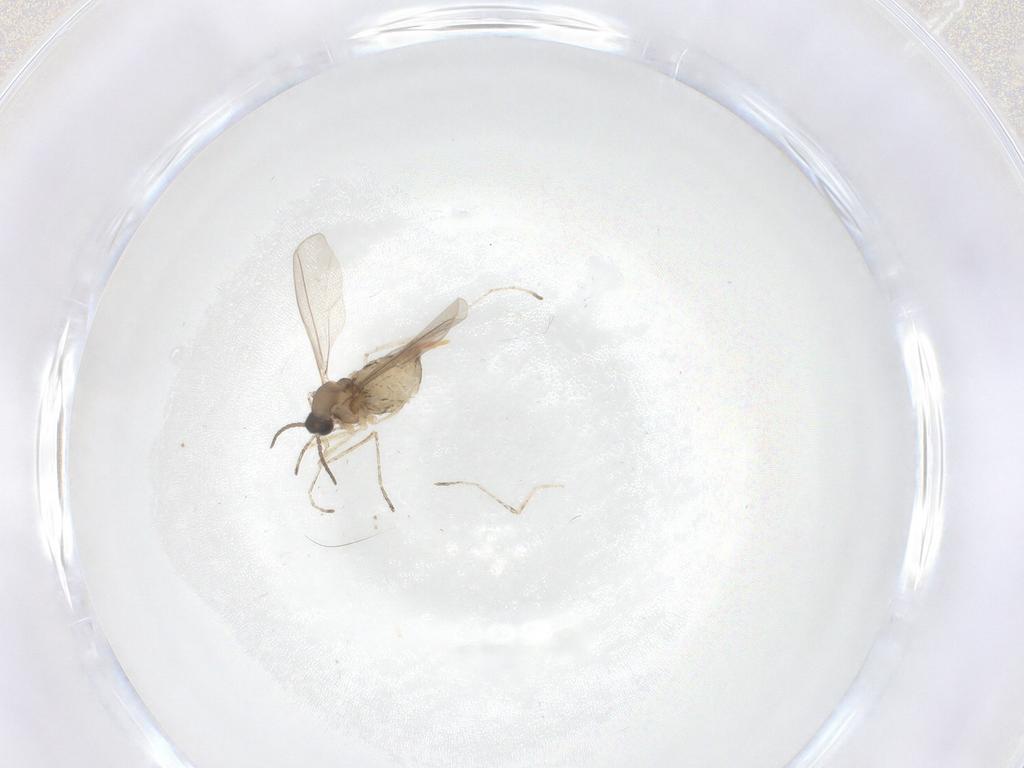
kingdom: Animalia
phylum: Arthropoda
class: Insecta
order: Diptera
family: Cecidomyiidae
